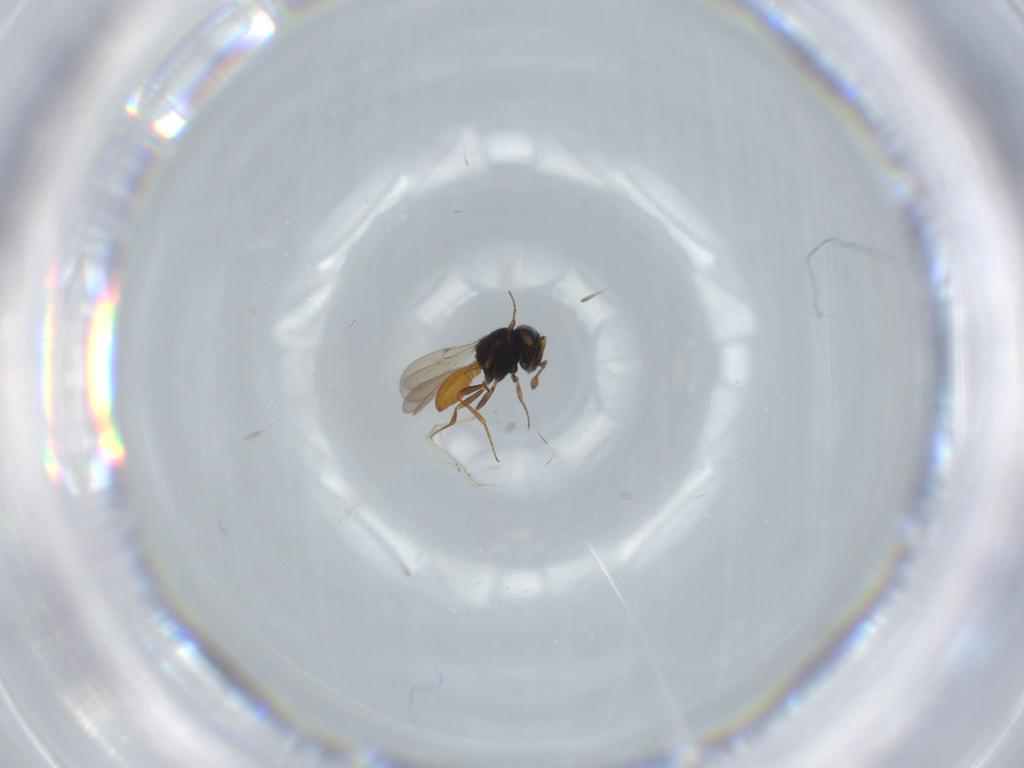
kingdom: Animalia
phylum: Arthropoda
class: Insecta
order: Hymenoptera
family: Scelionidae
